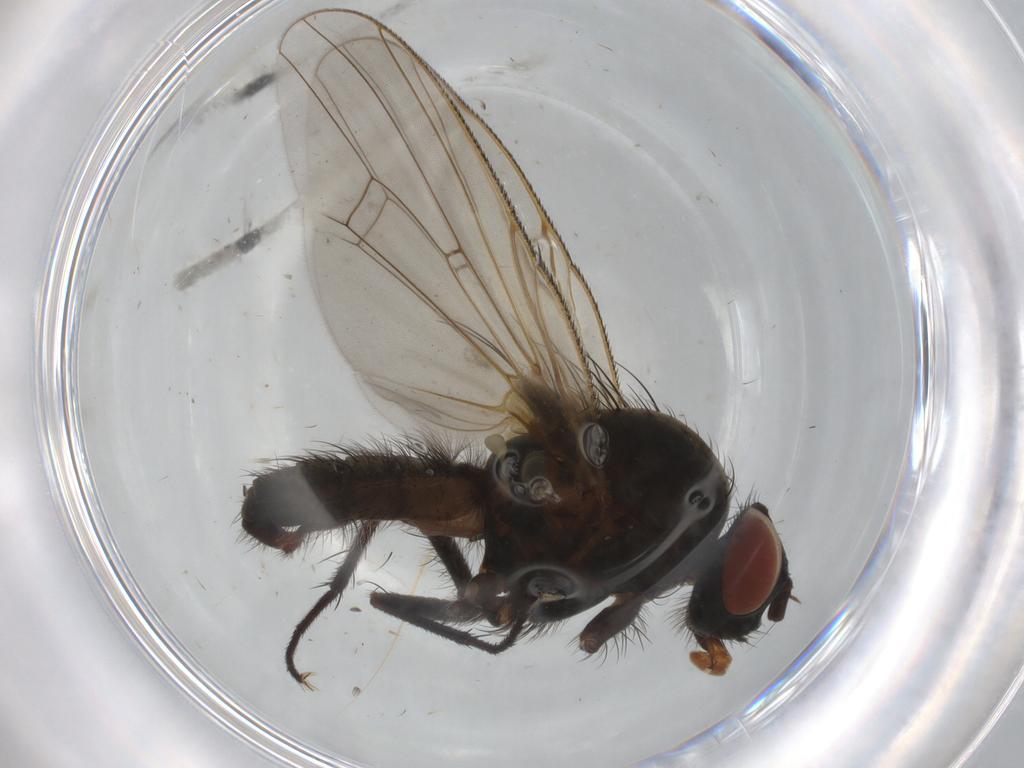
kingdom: Animalia
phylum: Arthropoda
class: Insecta
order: Diptera
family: Anthomyiidae
